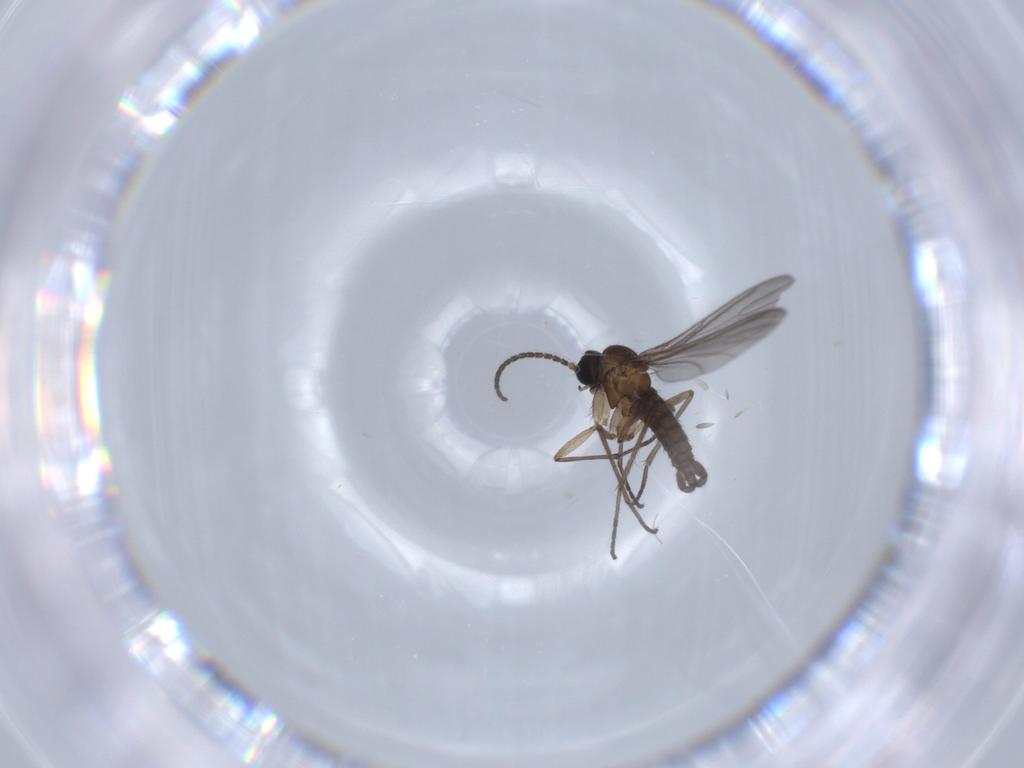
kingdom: Animalia
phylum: Arthropoda
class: Insecta
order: Diptera
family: Sciaridae
